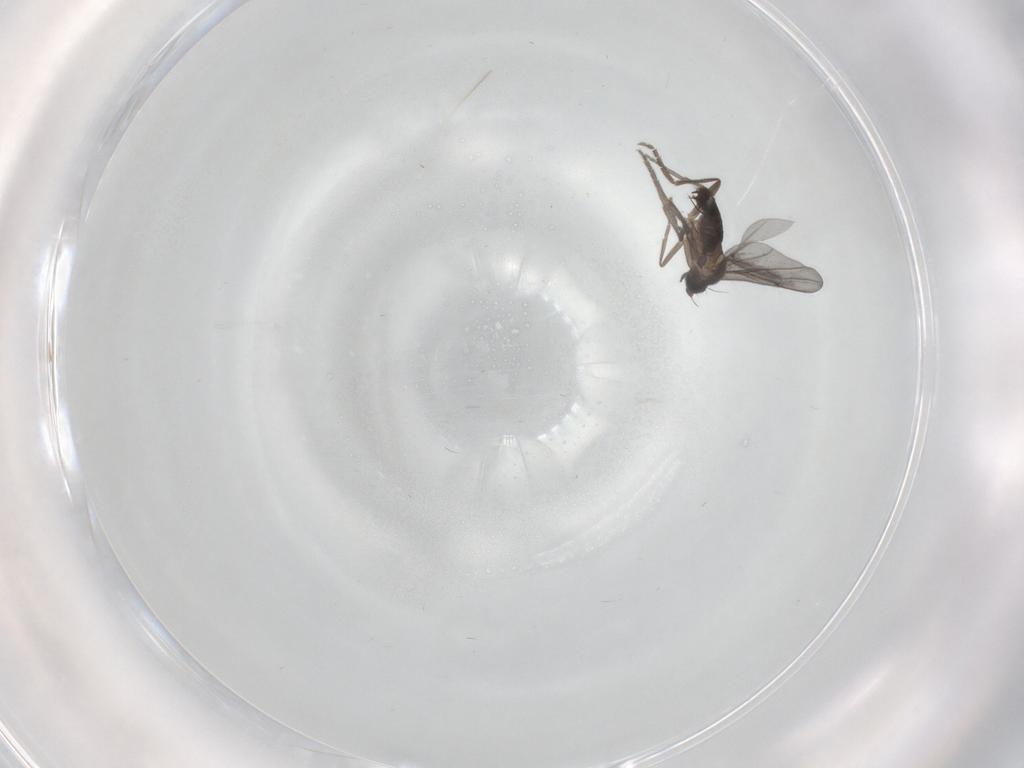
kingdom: Animalia
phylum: Arthropoda
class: Insecta
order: Diptera
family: Phoridae
